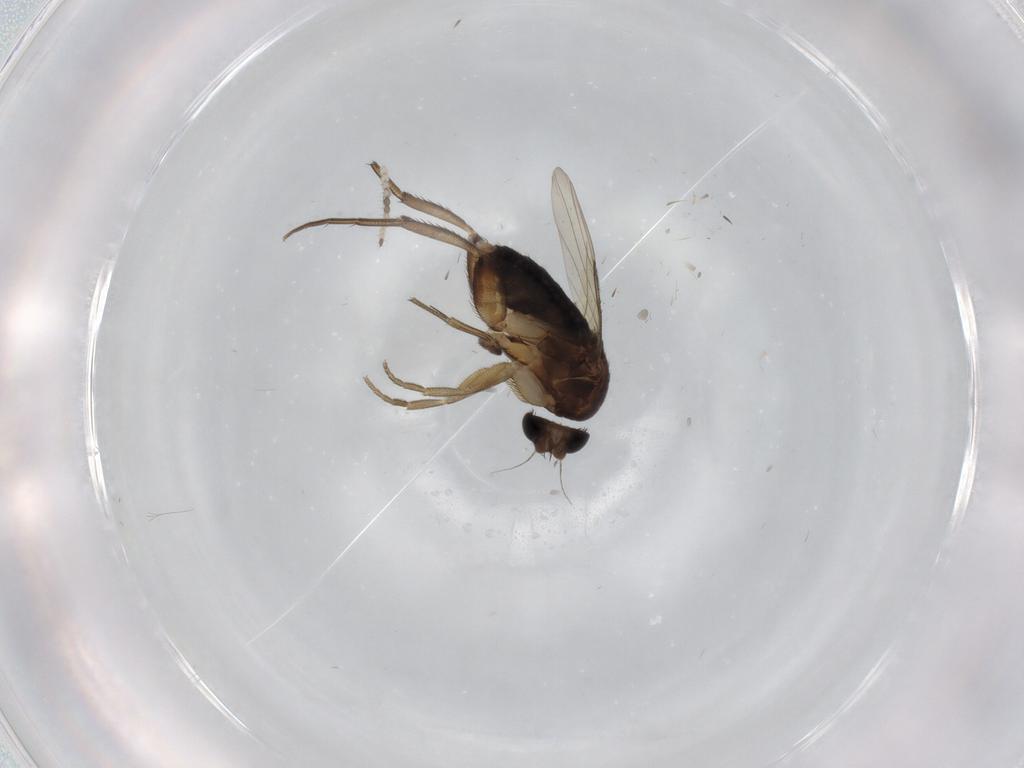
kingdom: Animalia
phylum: Arthropoda
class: Insecta
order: Diptera
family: Phoridae
